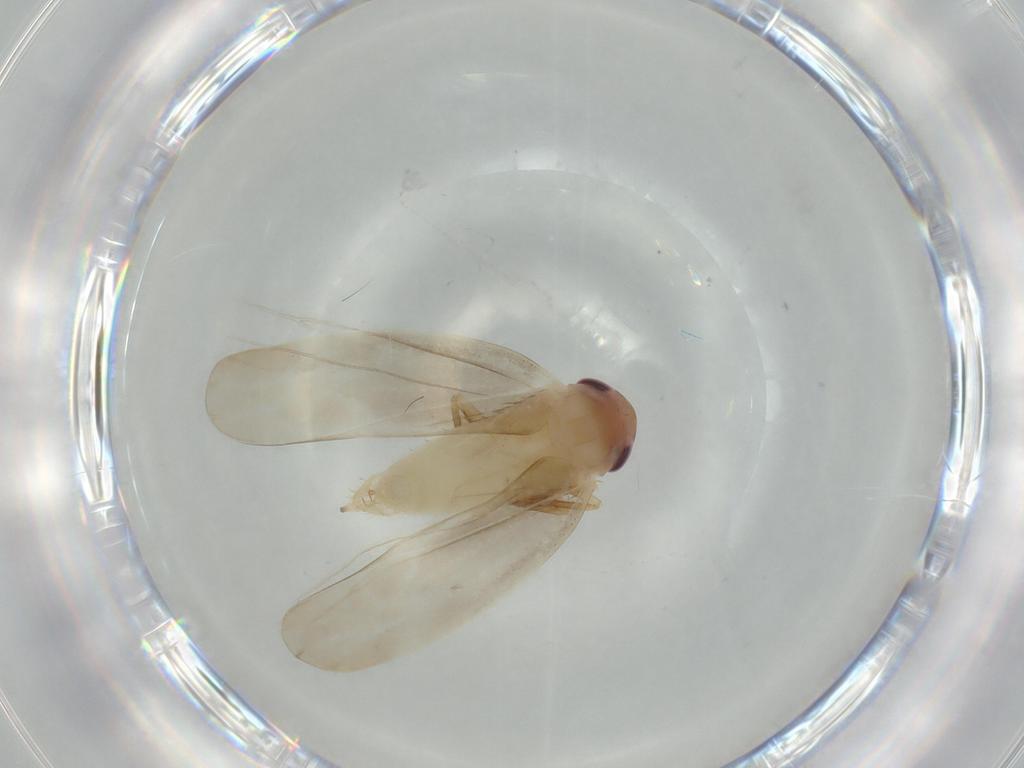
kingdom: Animalia
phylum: Arthropoda
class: Insecta
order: Hemiptera
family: Cicadellidae
